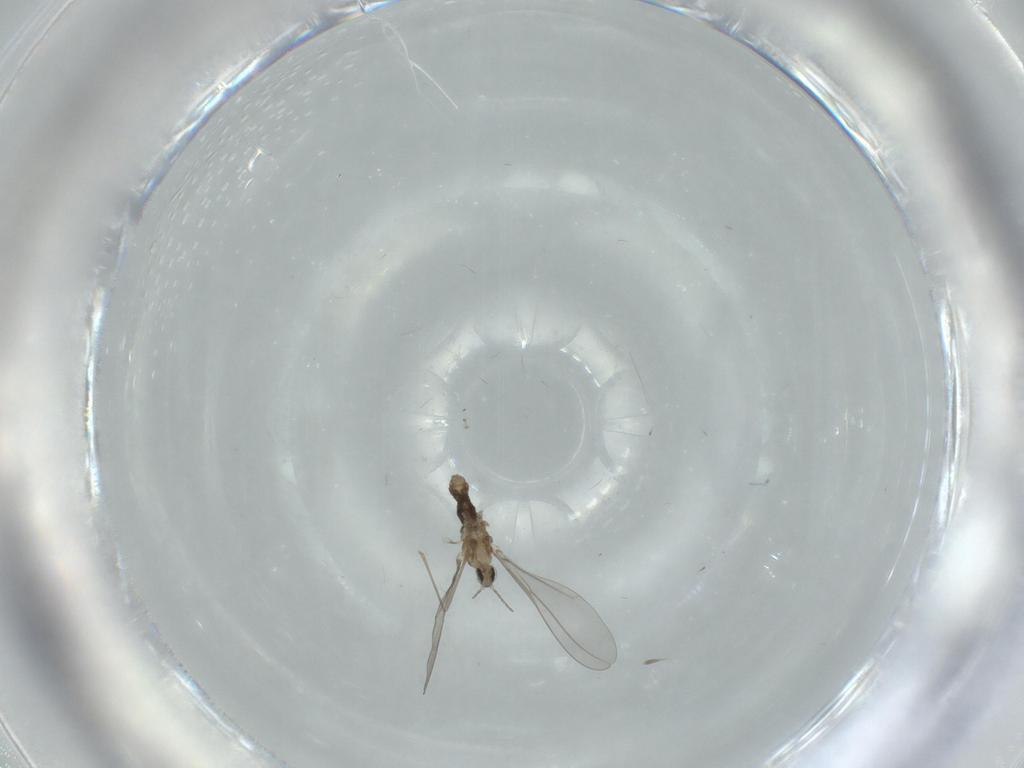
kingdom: Animalia
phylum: Arthropoda
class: Insecta
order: Diptera
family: Cecidomyiidae
